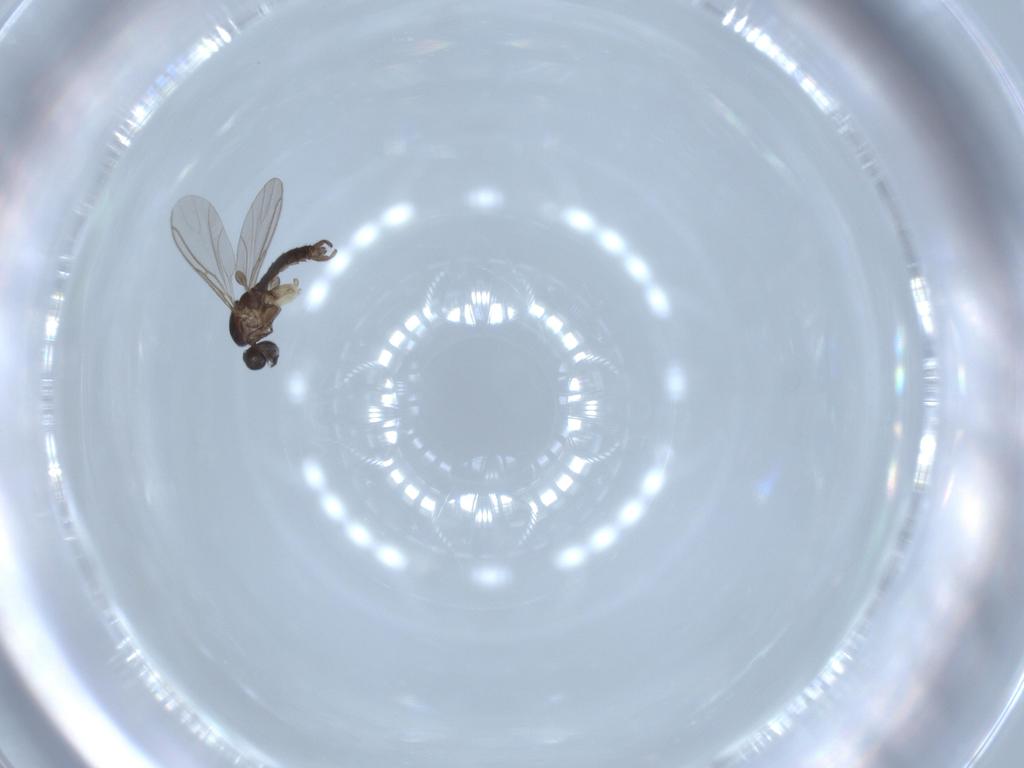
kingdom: Animalia
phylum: Arthropoda
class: Insecta
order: Diptera
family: Sciaridae
